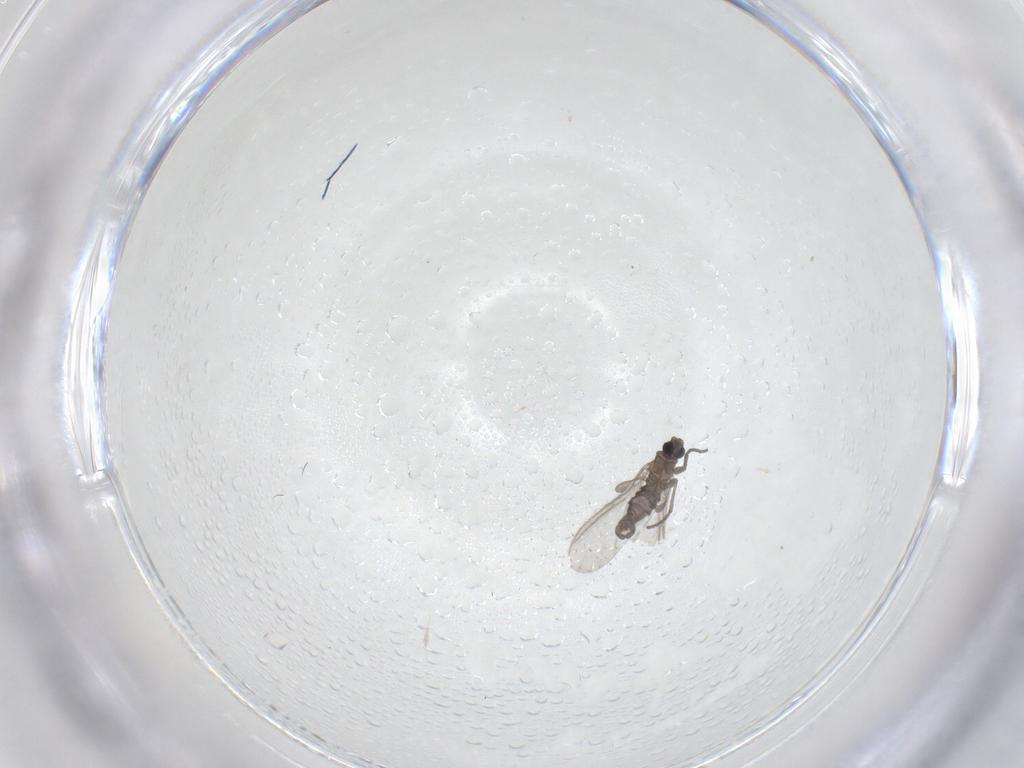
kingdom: Animalia
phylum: Arthropoda
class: Insecta
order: Diptera
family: Sciaridae
